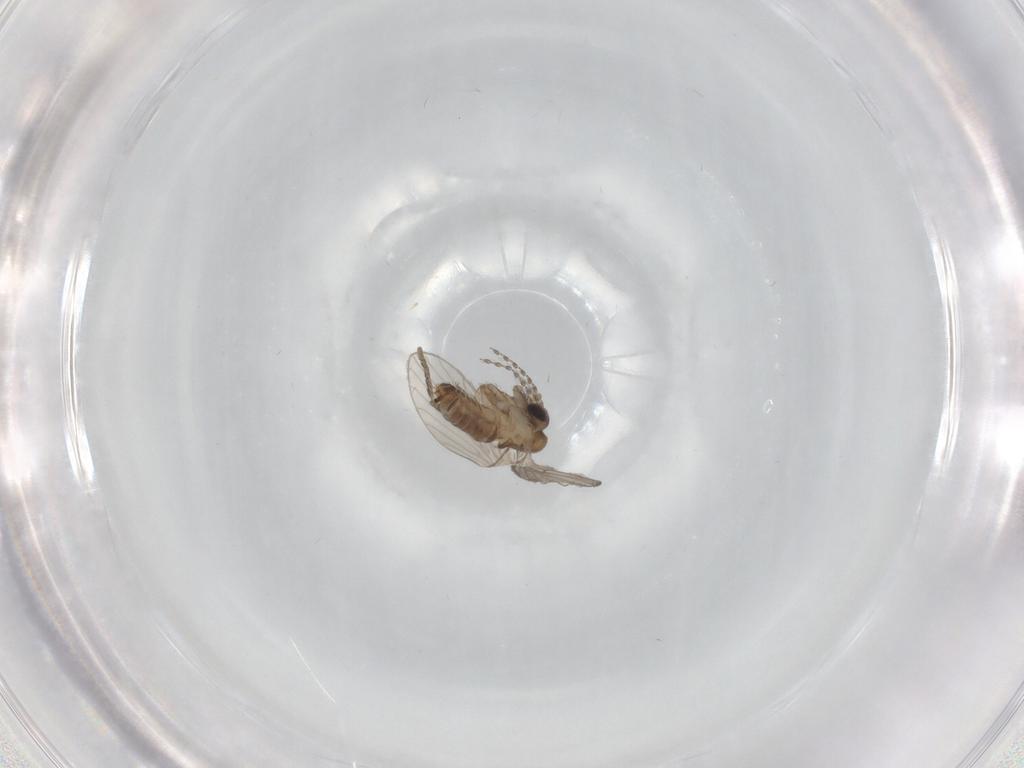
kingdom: Animalia
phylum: Arthropoda
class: Insecta
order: Diptera
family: Psychodidae
